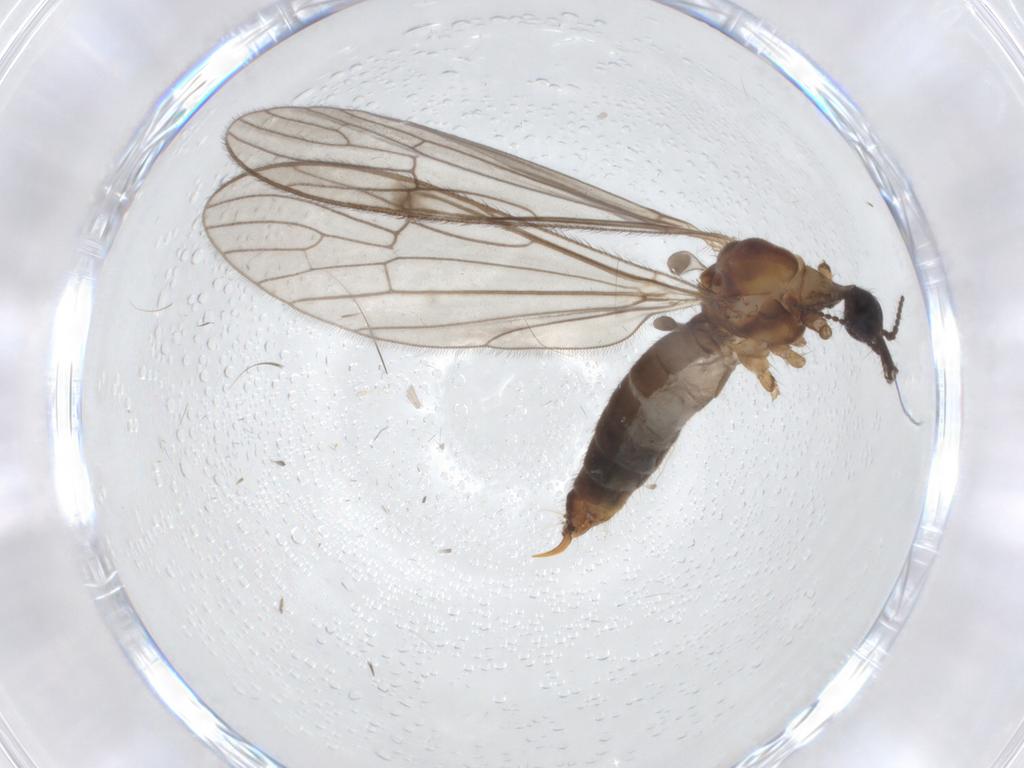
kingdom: Animalia
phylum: Arthropoda
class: Insecta
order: Diptera
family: Limoniidae
